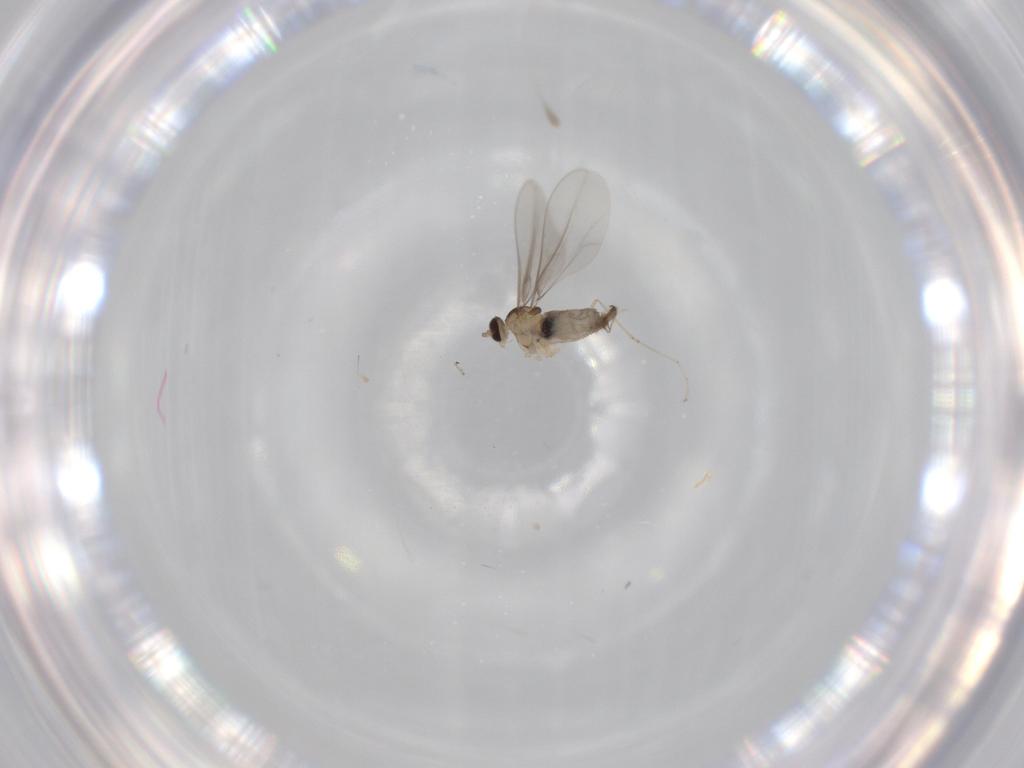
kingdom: Animalia
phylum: Arthropoda
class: Insecta
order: Diptera
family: Cecidomyiidae
